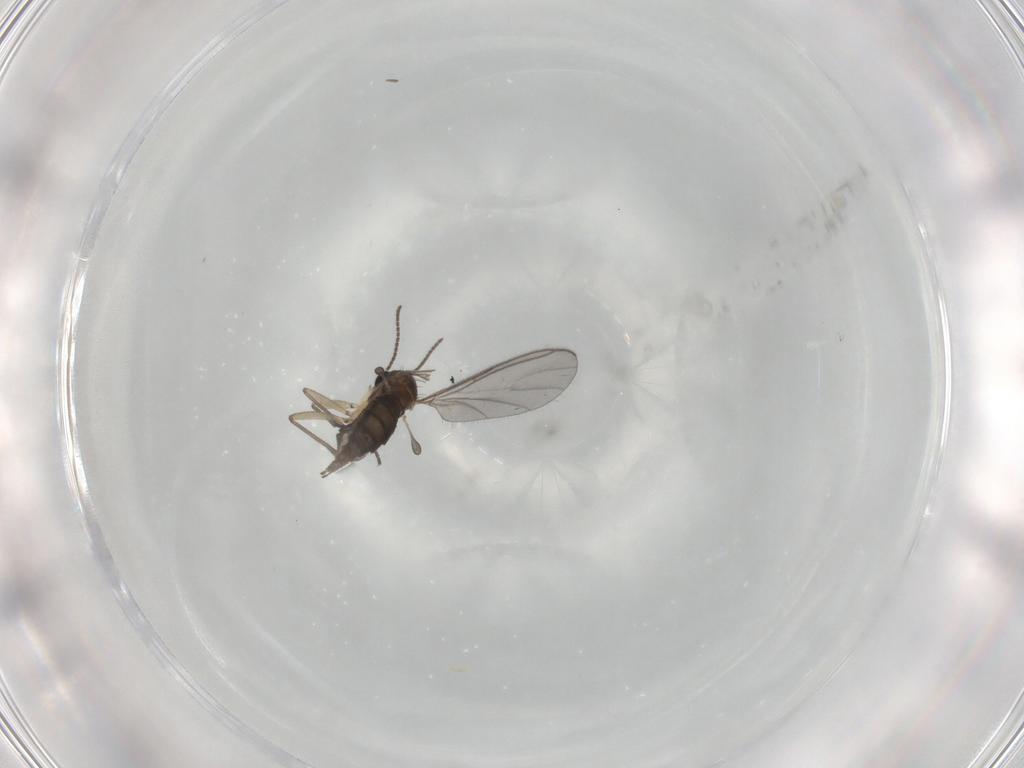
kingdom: Animalia
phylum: Arthropoda
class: Insecta
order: Diptera
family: Sciaridae
